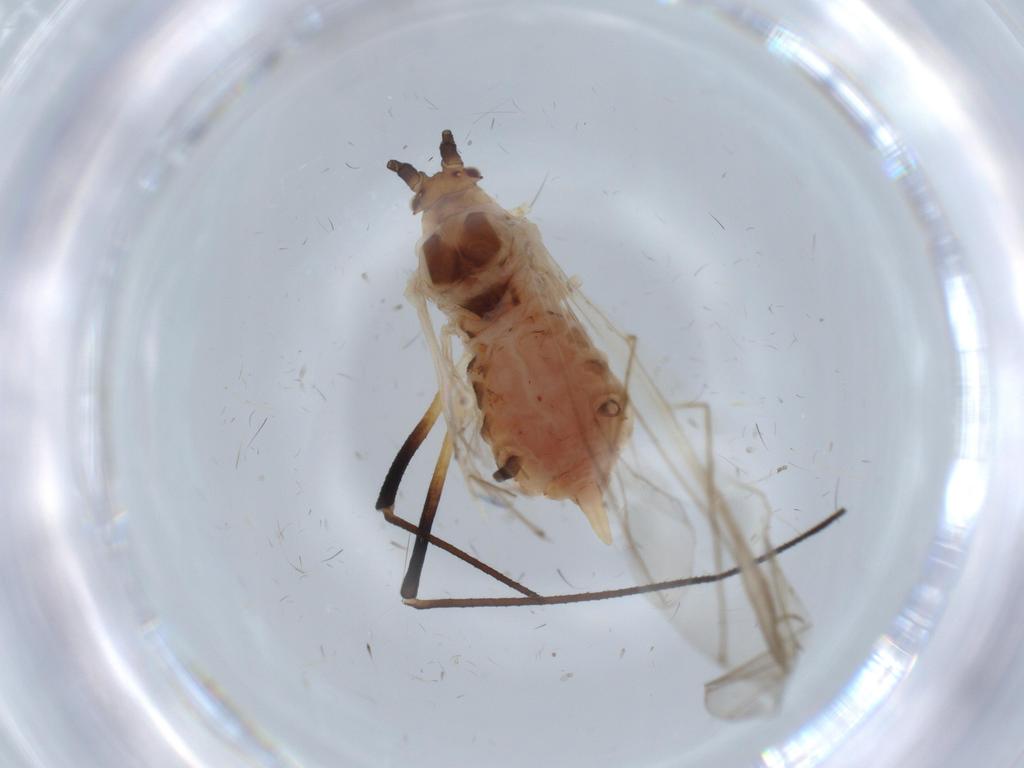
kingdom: Animalia
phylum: Arthropoda
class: Insecta
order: Hemiptera
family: Aphididae
